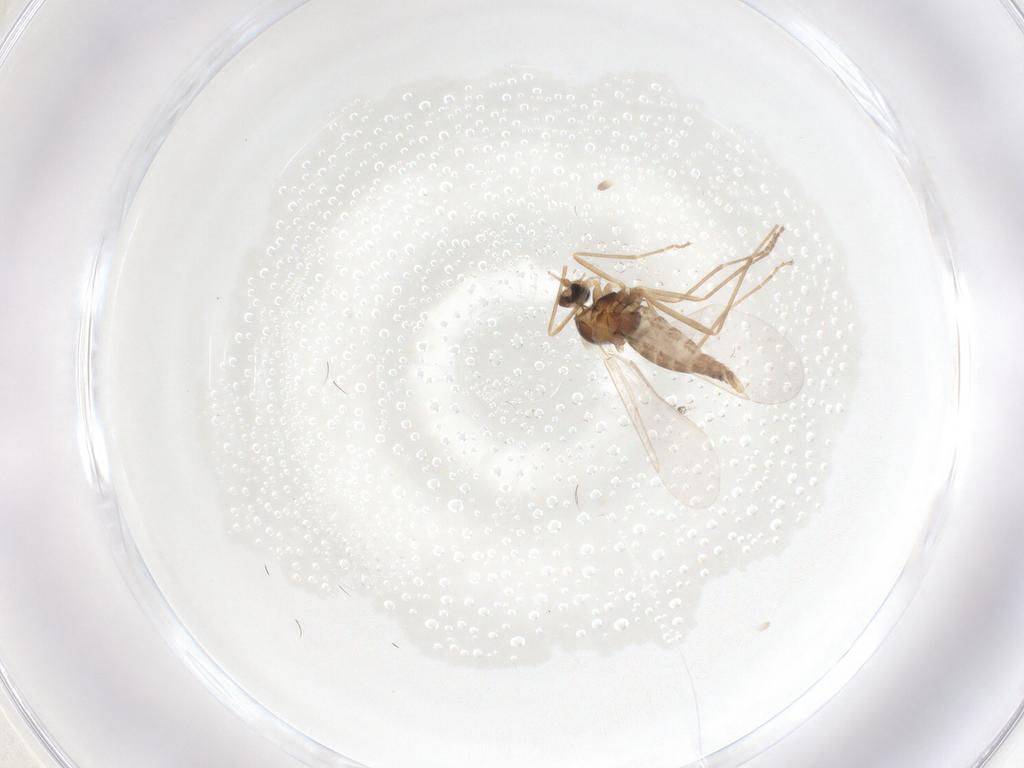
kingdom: Animalia
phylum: Arthropoda
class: Insecta
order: Diptera
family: Cecidomyiidae
